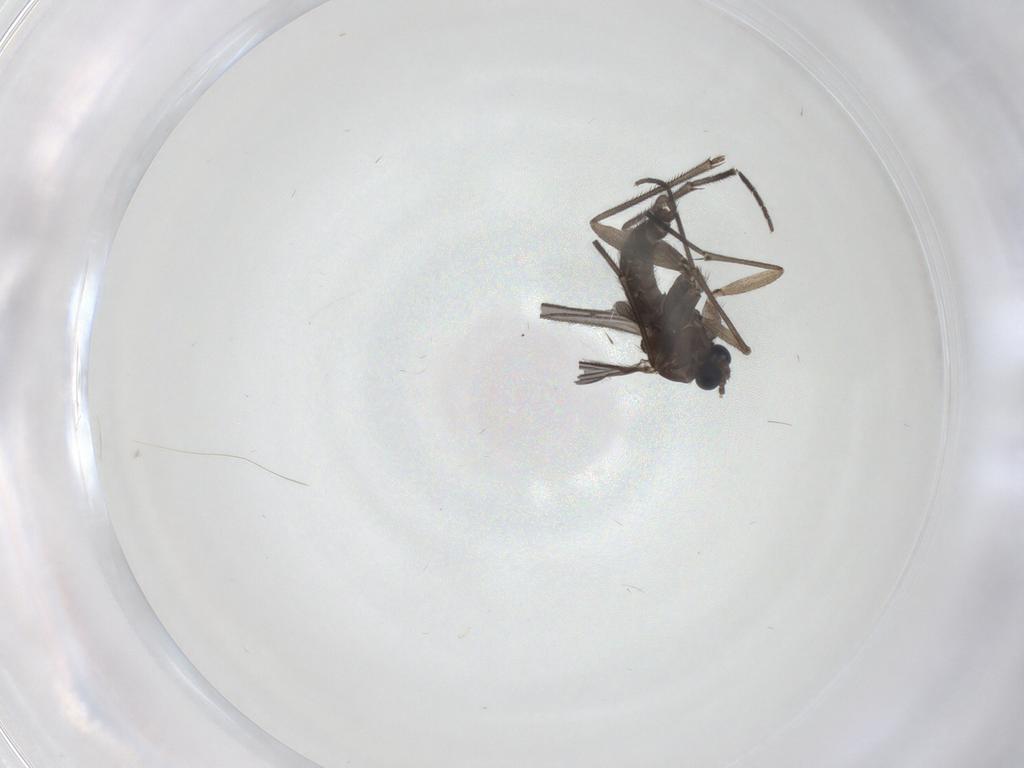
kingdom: Animalia
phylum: Arthropoda
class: Insecta
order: Diptera
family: Sciaridae
